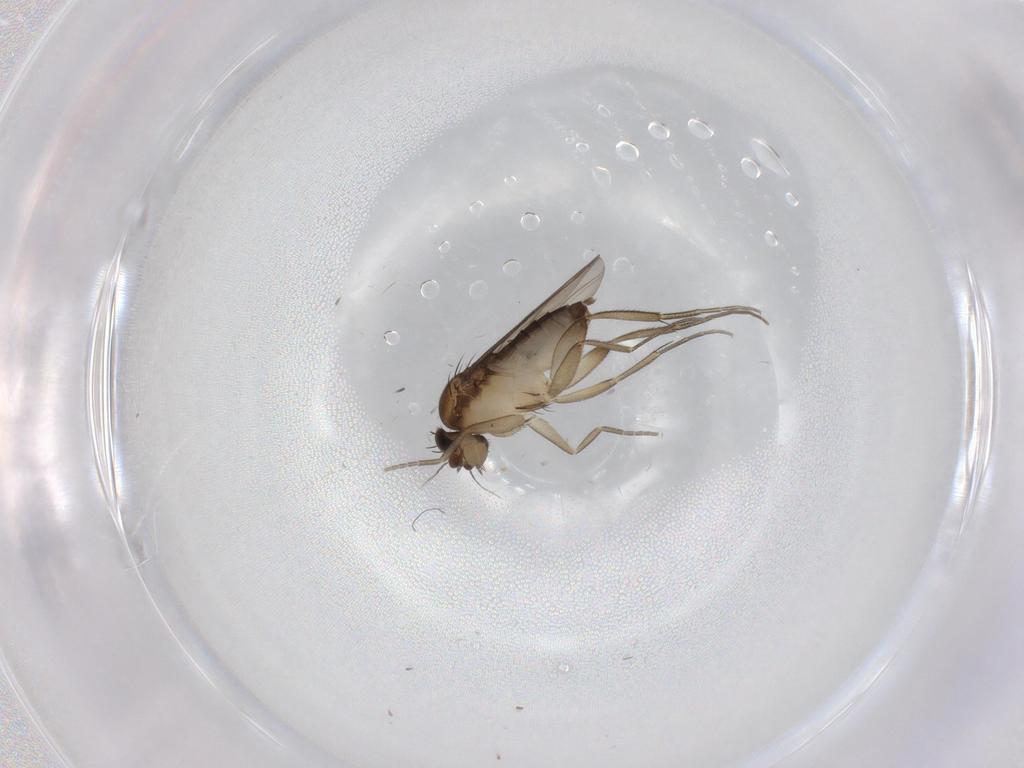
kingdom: Animalia
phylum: Arthropoda
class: Insecta
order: Diptera
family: Phoridae
